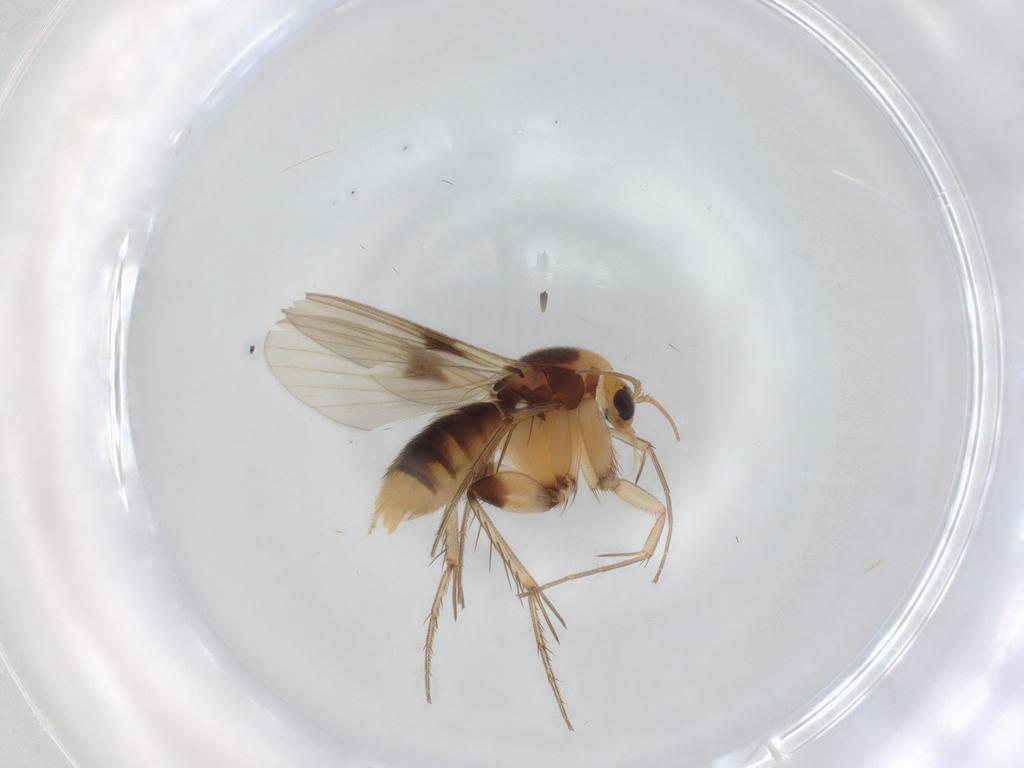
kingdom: Animalia
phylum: Arthropoda
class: Insecta
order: Diptera
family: Mycetophilidae
